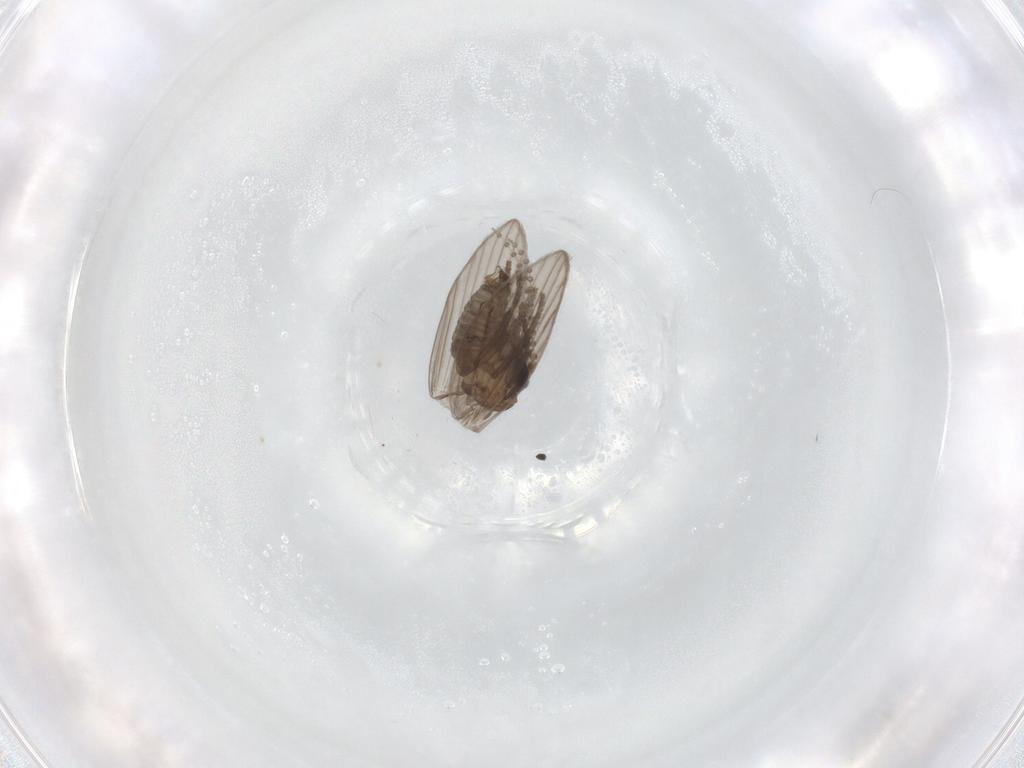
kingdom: Animalia
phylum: Arthropoda
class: Insecta
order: Diptera
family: Psychodidae
